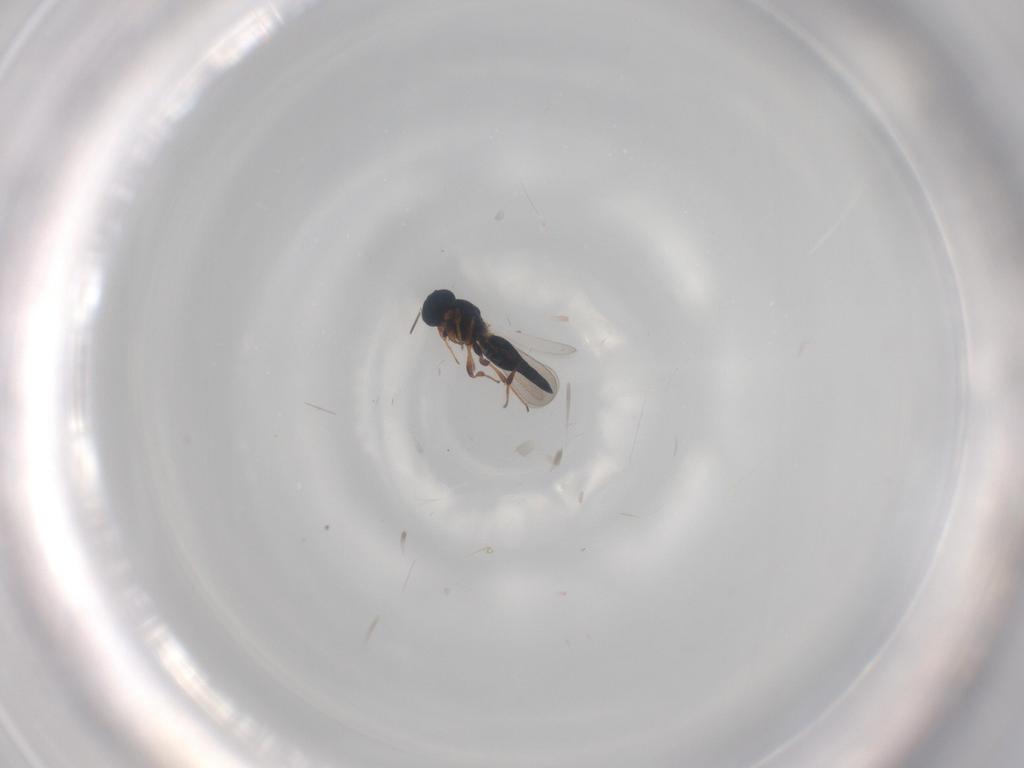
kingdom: Animalia
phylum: Arthropoda
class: Insecta
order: Hymenoptera
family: Platygastridae
